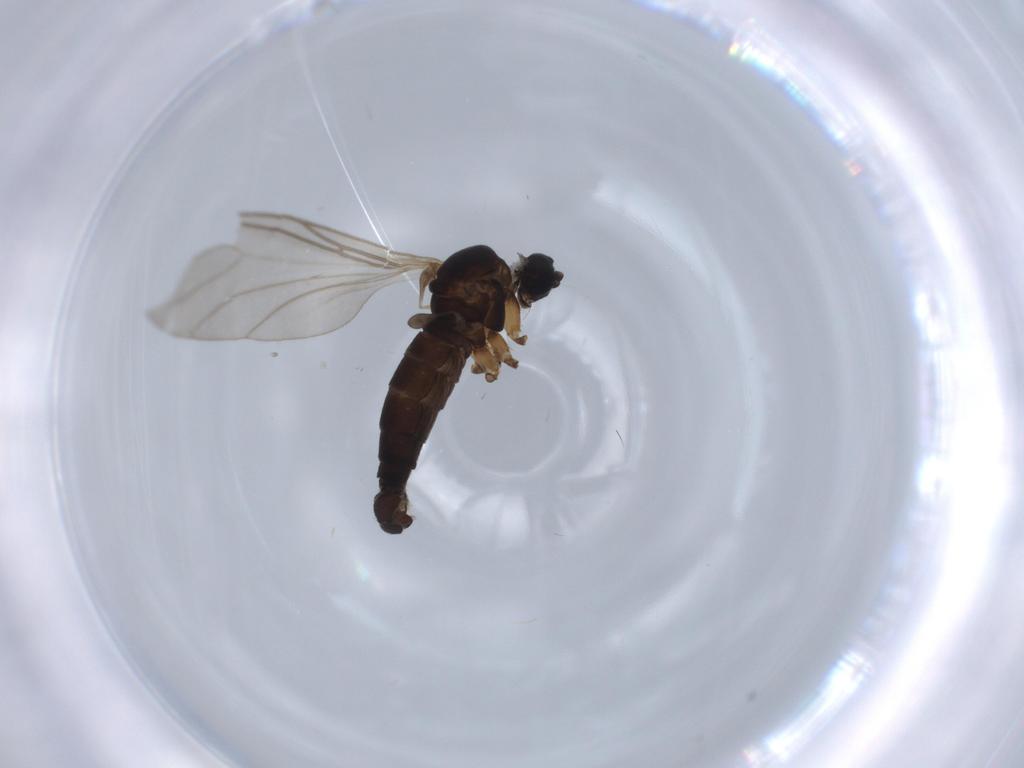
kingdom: Animalia
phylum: Arthropoda
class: Insecta
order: Diptera
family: Sciaridae
